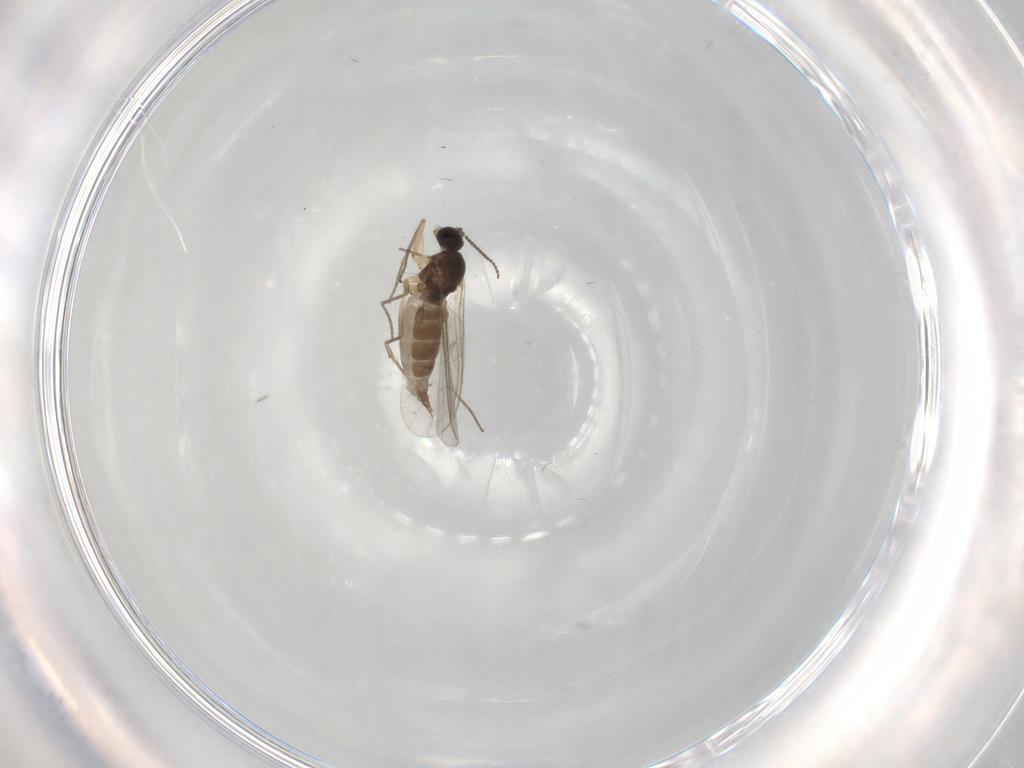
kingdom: Animalia
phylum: Arthropoda
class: Insecta
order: Diptera
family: Sciaridae
